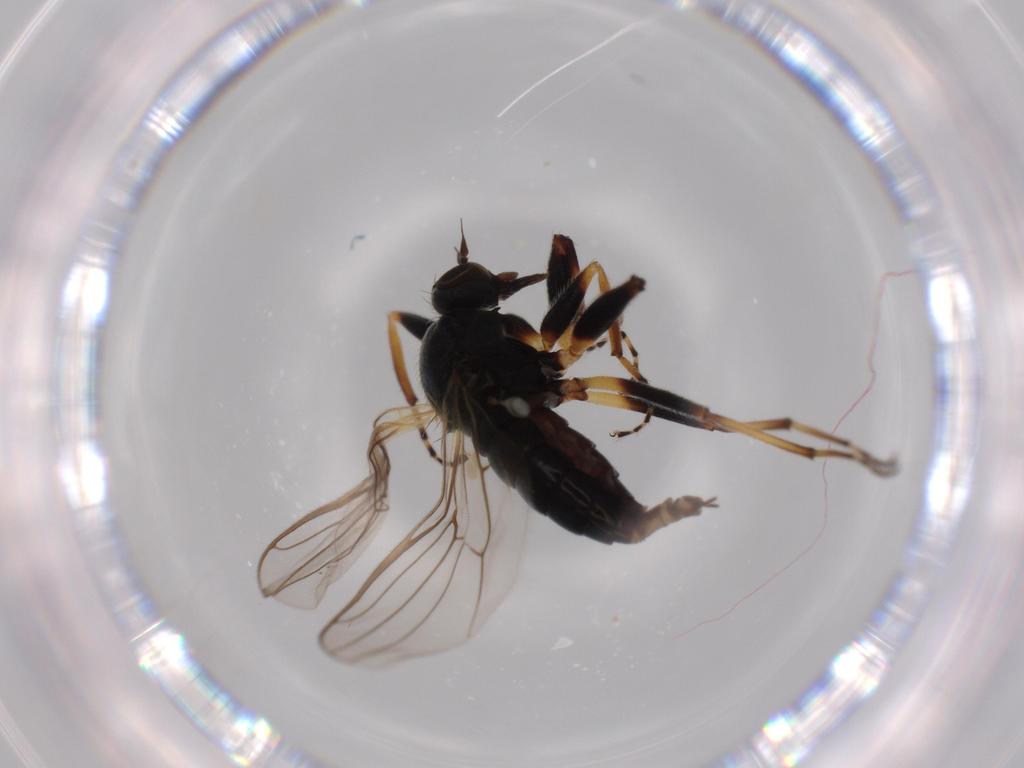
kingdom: Animalia
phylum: Arthropoda
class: Insecta
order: Diptera
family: Hybotidae
